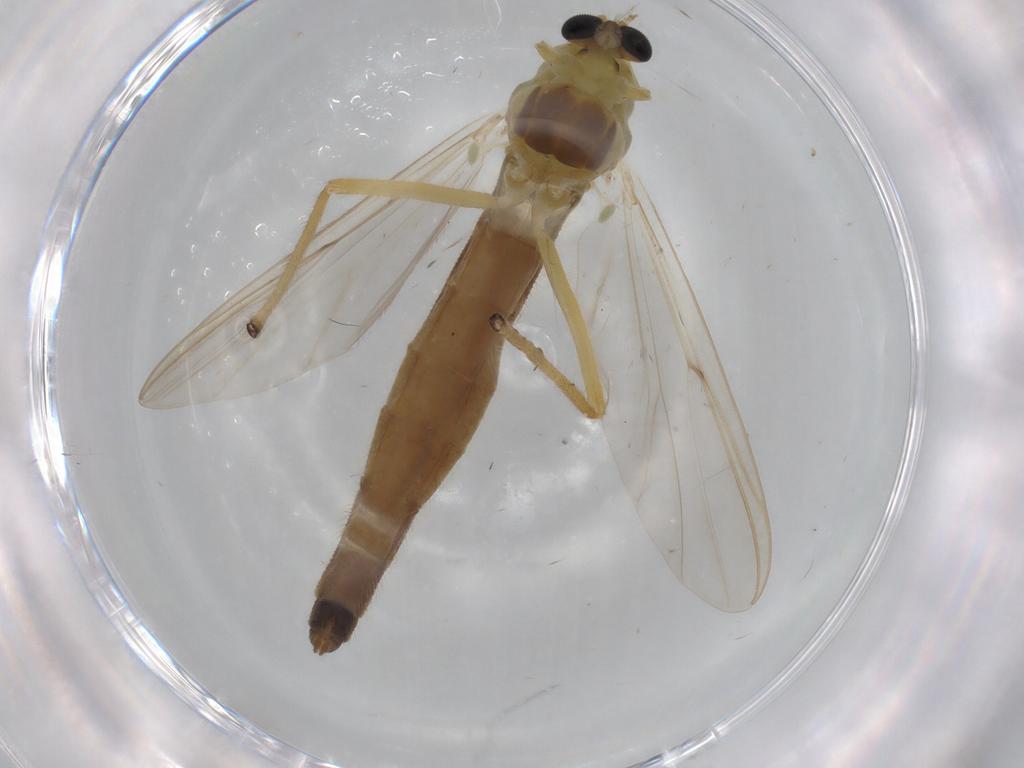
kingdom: Animalia
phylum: Arthropoda
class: Insecta
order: Diptera
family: Chironomidae
